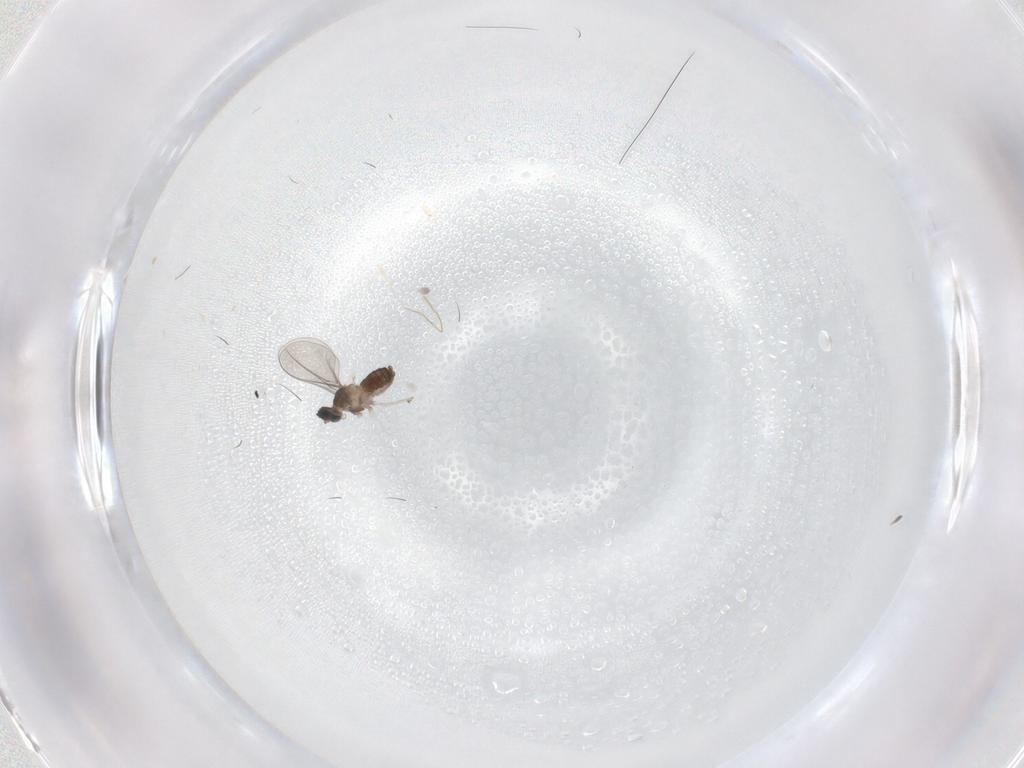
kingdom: Animalia
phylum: Arthropoda
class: Insecta
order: Diptera
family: Cecidomyiidae
